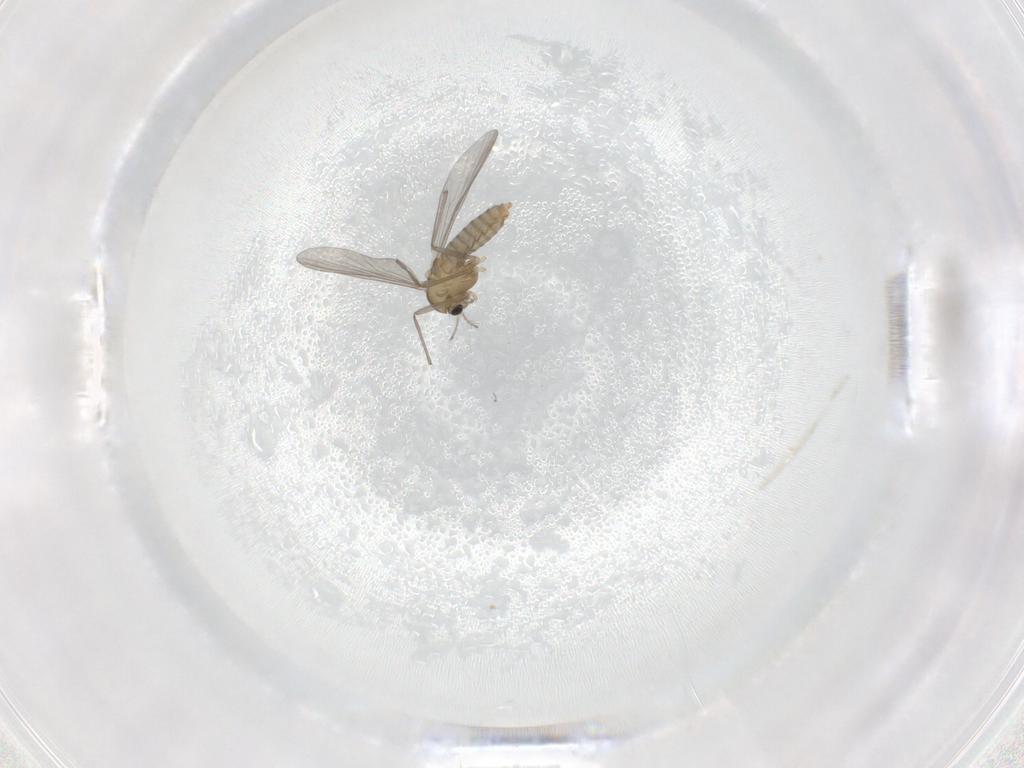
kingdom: Animalia
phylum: Arthropoda
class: Insecta
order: Diptera
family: Chironomidae
